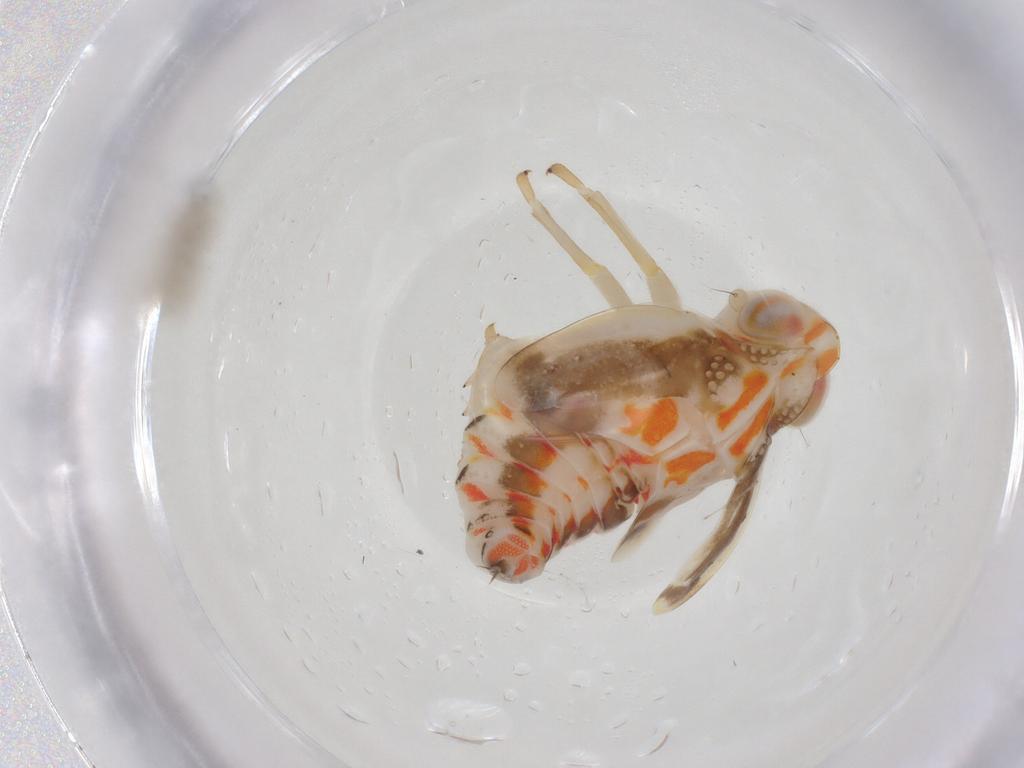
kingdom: Animalia
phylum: Arthropoda
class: Insecta
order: Hemiptera
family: Nogodinidae
